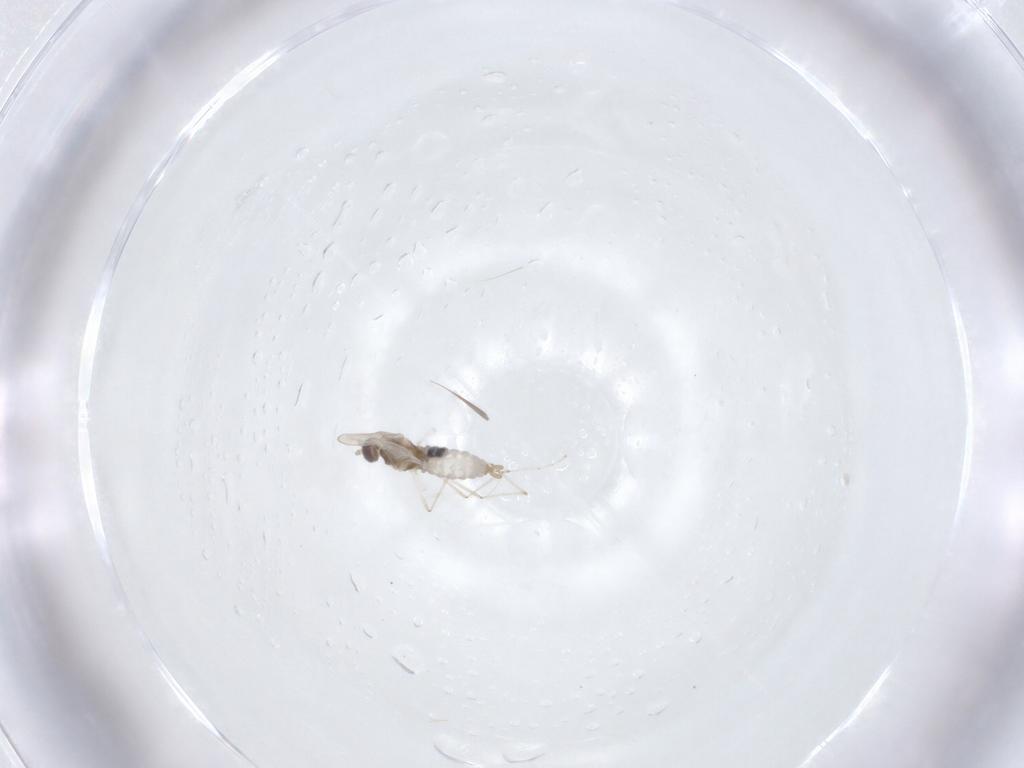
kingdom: Animalia
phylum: Arthropoda
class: Insecta
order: Diptera
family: Cecidomyiidae
